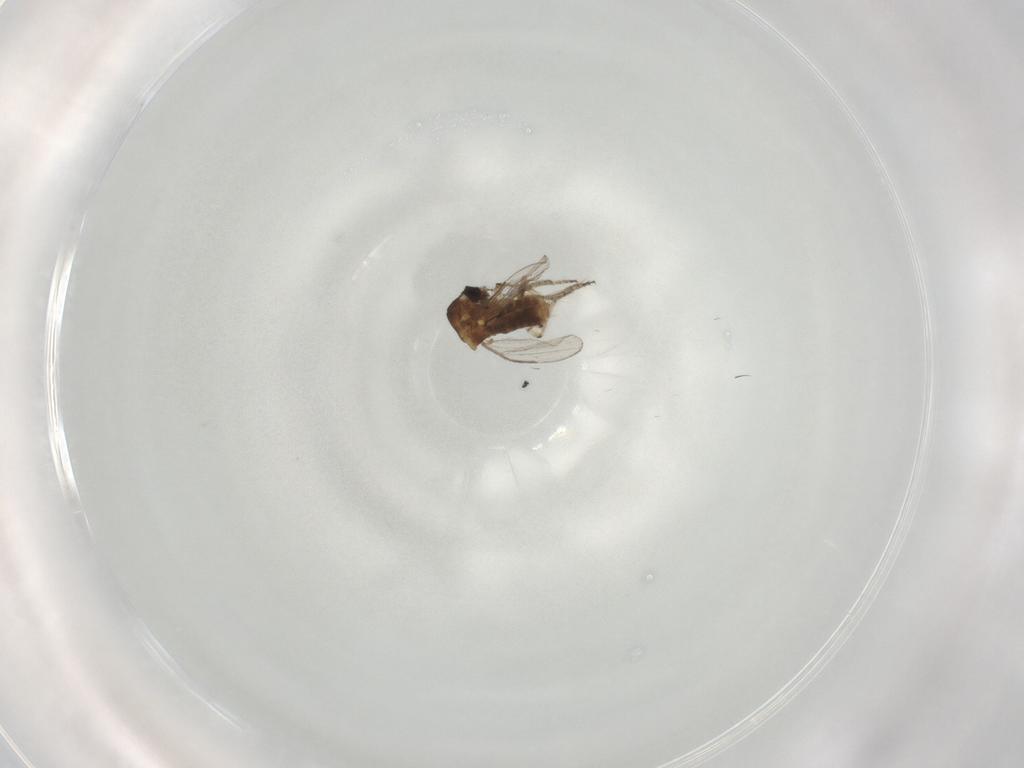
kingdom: Animalia
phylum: Arthropoda
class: Insecta
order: Diptera
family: Ceratopogonidae
